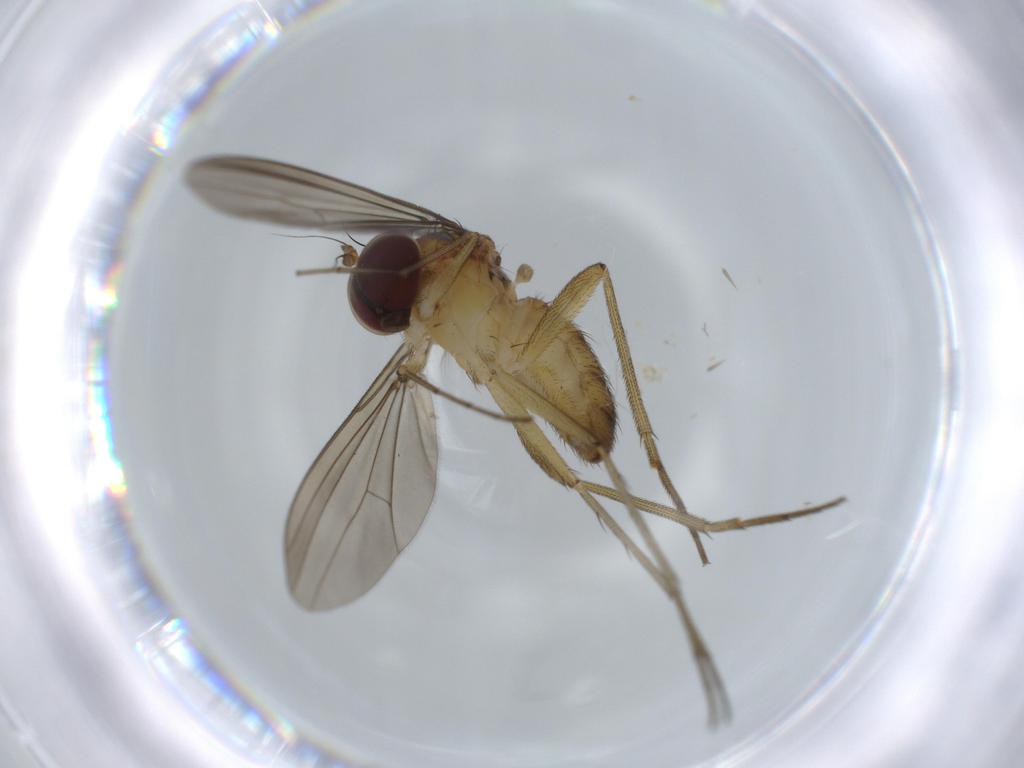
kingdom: Animalia
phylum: Arthropoda
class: Insecta
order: Diptera
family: Dolichopodidae
